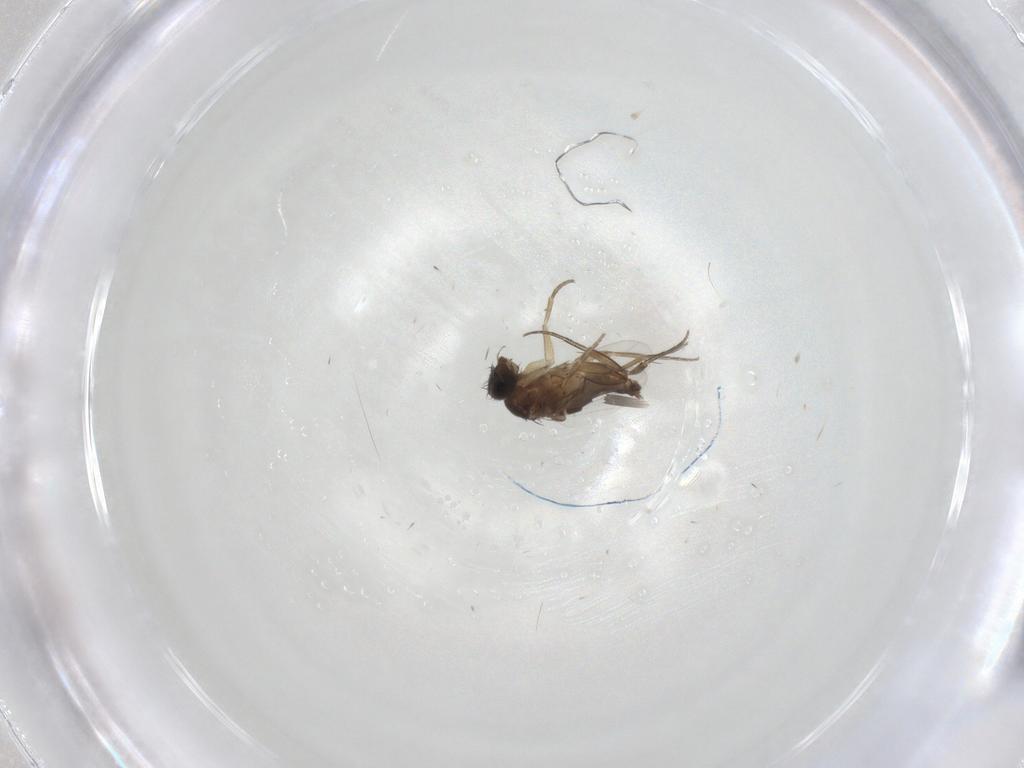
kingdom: Animalia
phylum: Arthropoda
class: Insecta
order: Diptera
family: Phoridae
